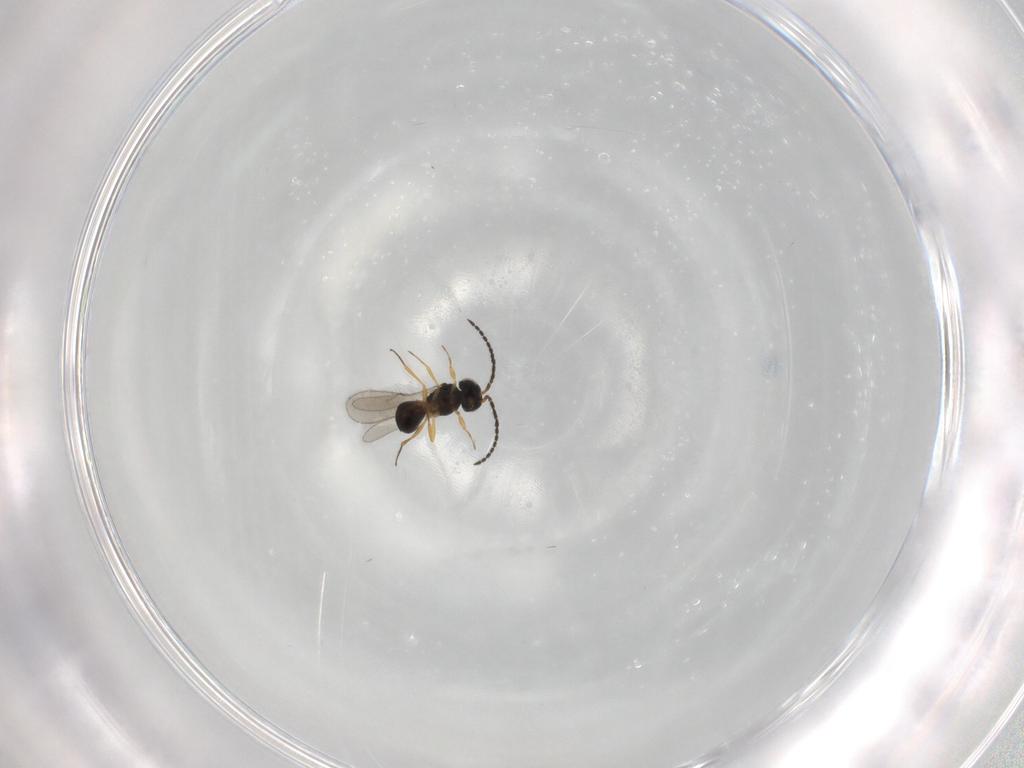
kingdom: Animalia
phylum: Arthropoda
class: Insecta
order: Hymenoptera
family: Scelionidae
